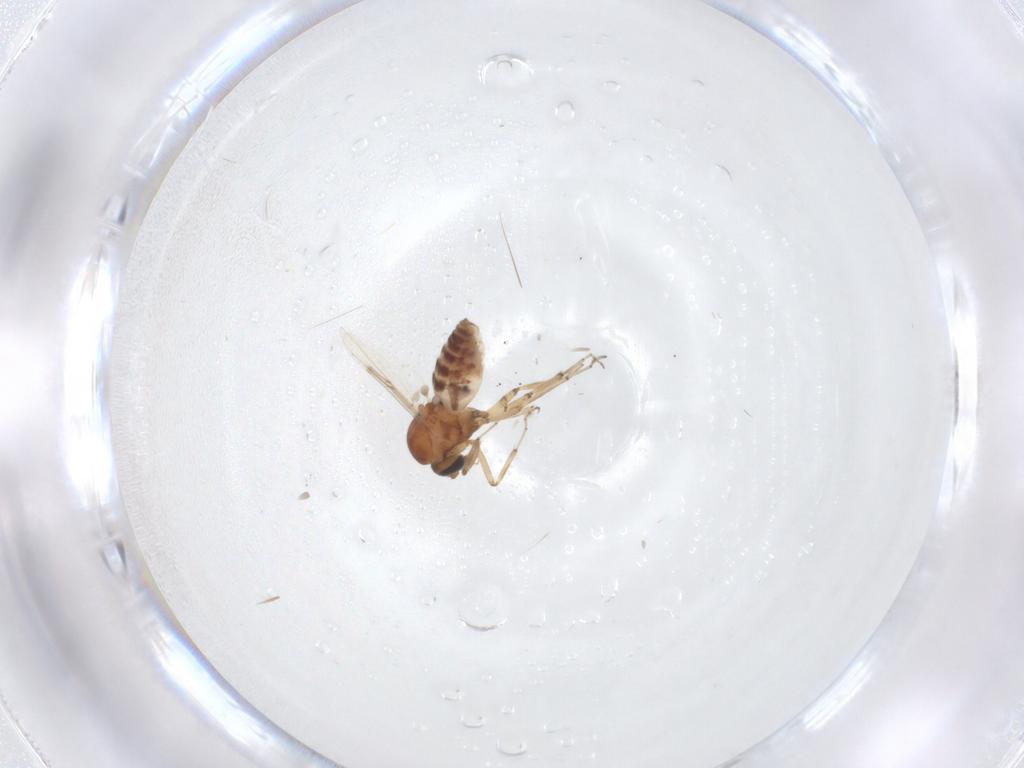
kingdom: Animalia
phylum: Arthropoda
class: Insecta
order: Diptera
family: Ceratopogonidae
